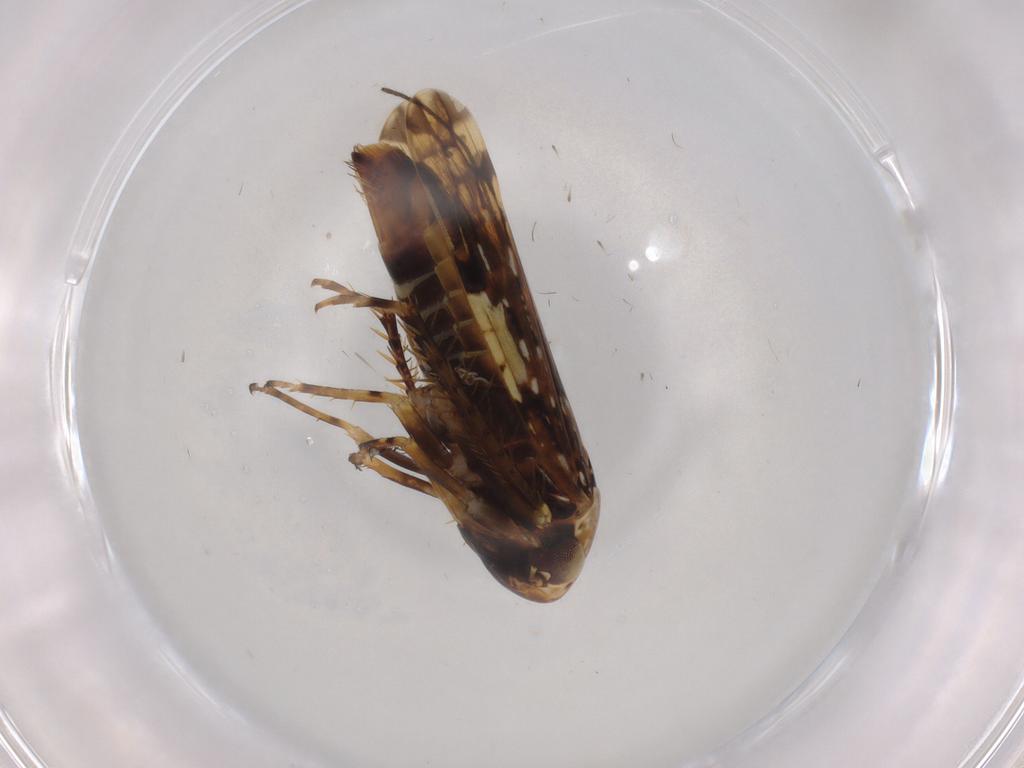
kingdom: Animalia
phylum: Arthropoda
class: Insecta
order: Hemiptera
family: Cicadellidae
